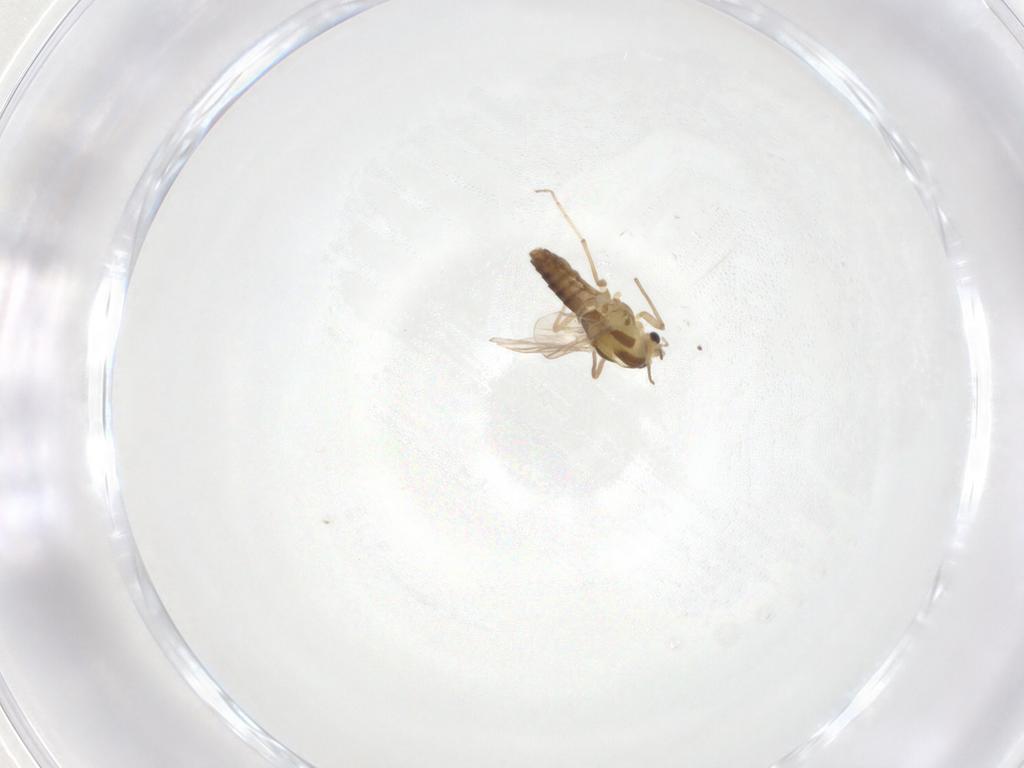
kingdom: Animalia
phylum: Arthropoda
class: Insecta
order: Diptera
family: Chironomidae
